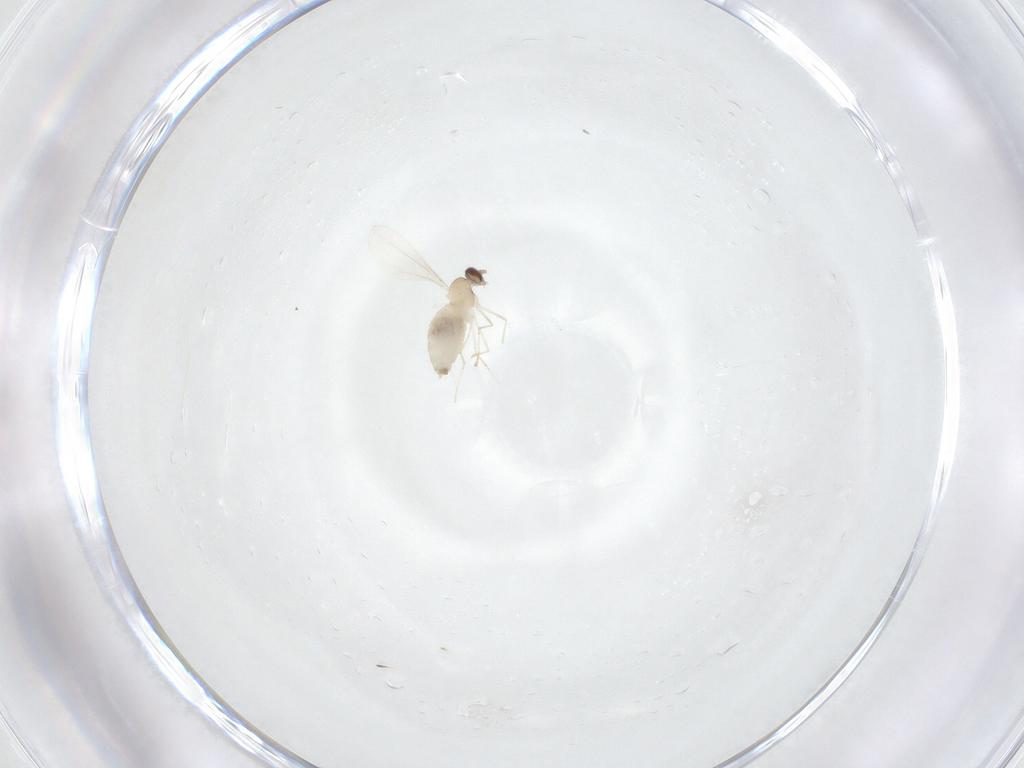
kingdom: Animalia
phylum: Arthropoda
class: Insecta
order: Diptera
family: Cecidomyiidae
